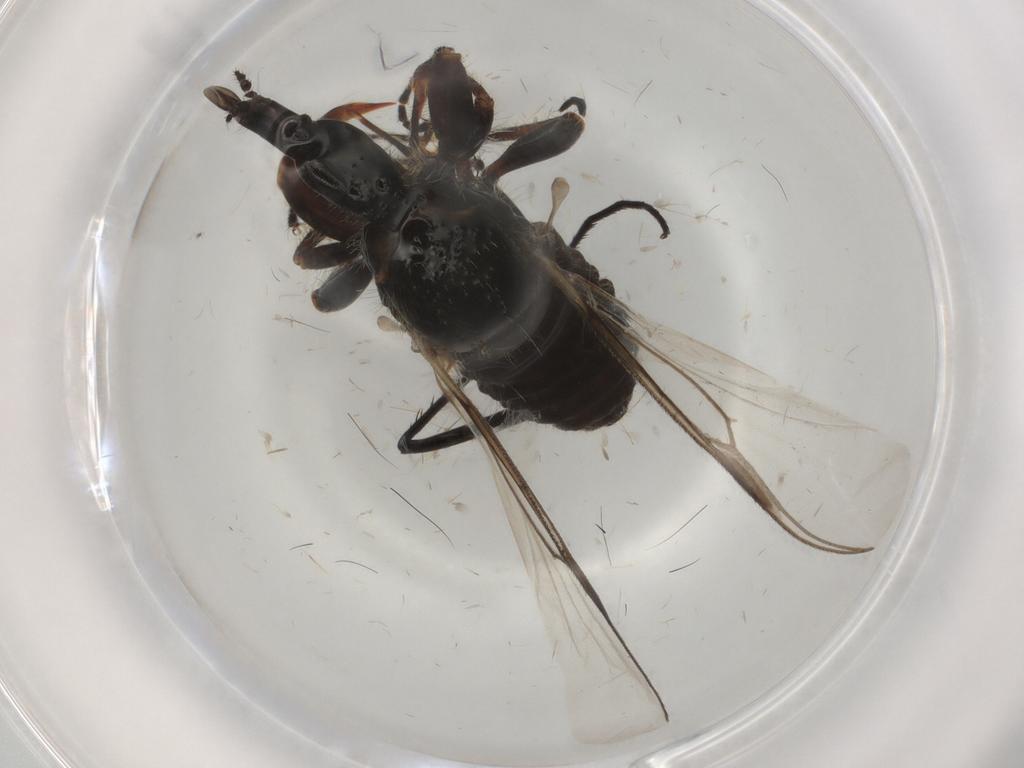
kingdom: Animalia
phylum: Arthropoda
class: Insecta
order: Diptera
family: Bibionidae
